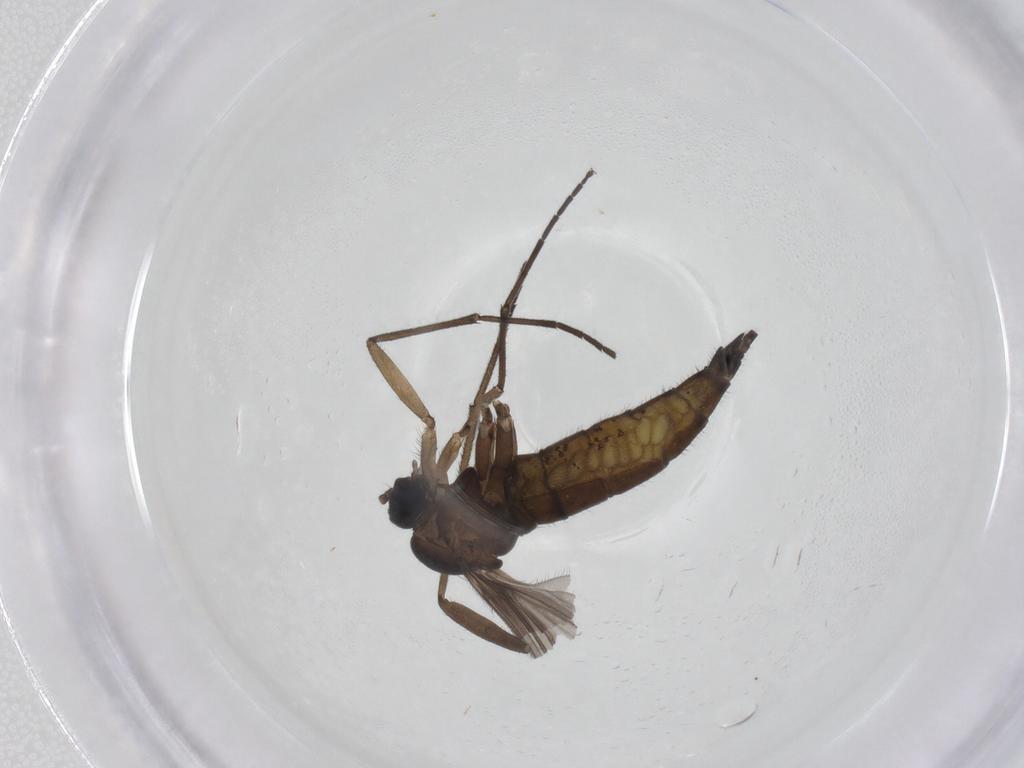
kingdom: Animalia
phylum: Arthropoda
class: Insecta
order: Diptera
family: Sciaridae
